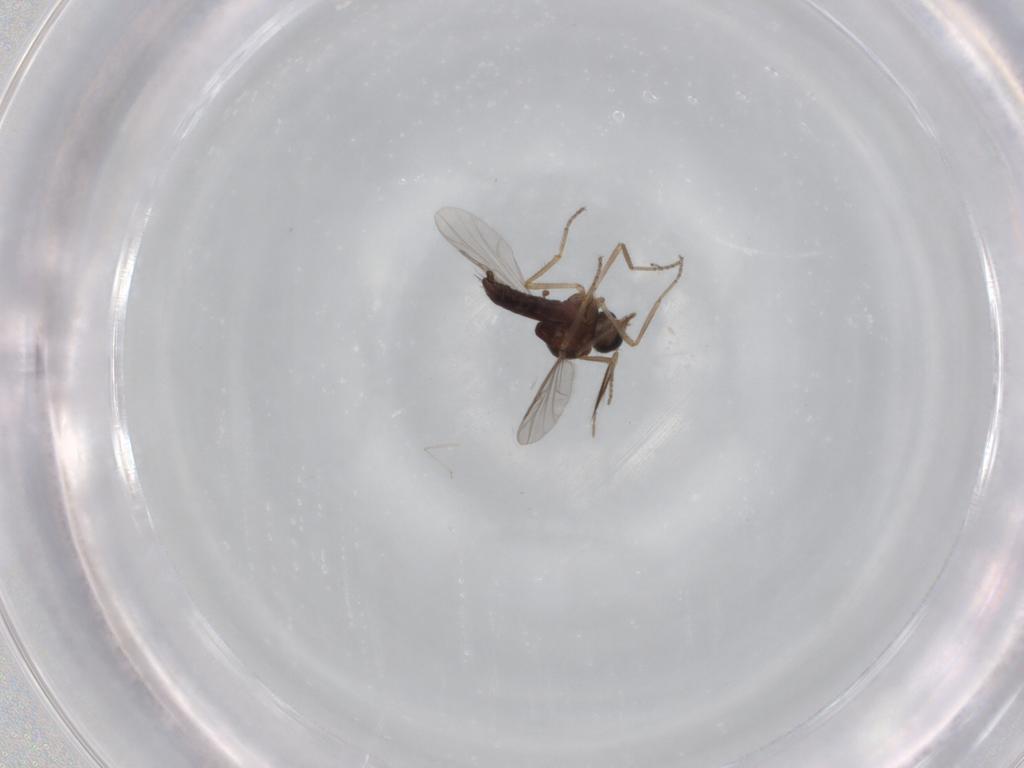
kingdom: Animalia
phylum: Arthropoda
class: Insecta
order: Diptera
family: Ceratopogonidae
